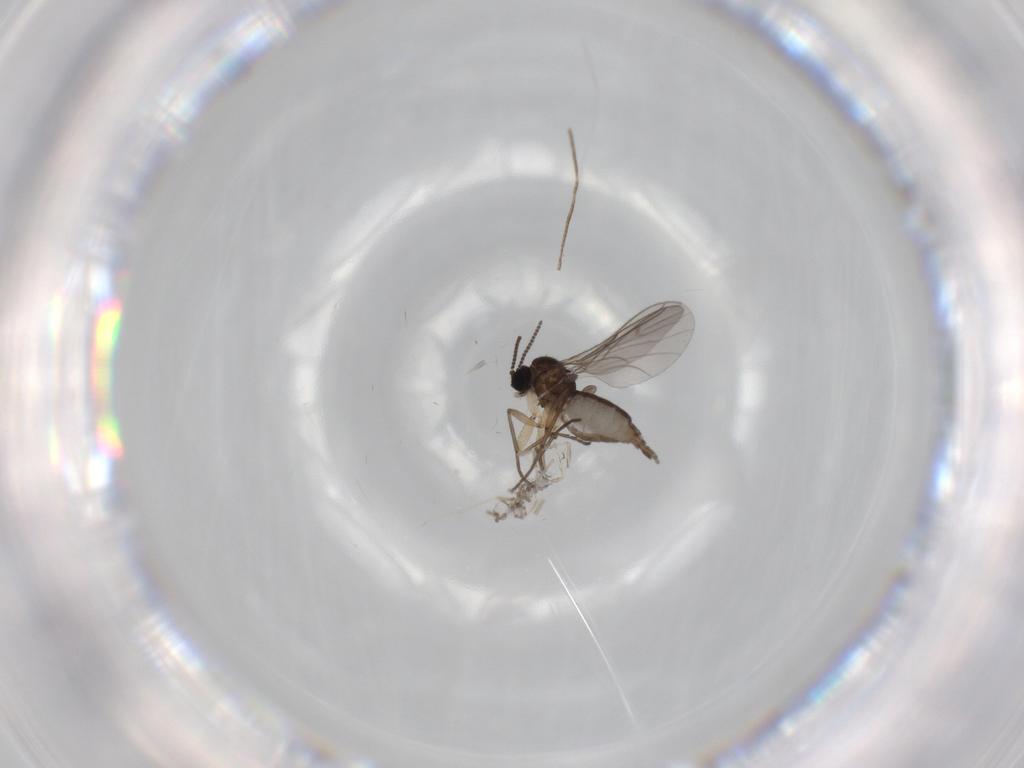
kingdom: Animalia
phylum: Arthropoda
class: Insecta
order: Diptera
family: Sciaridae
